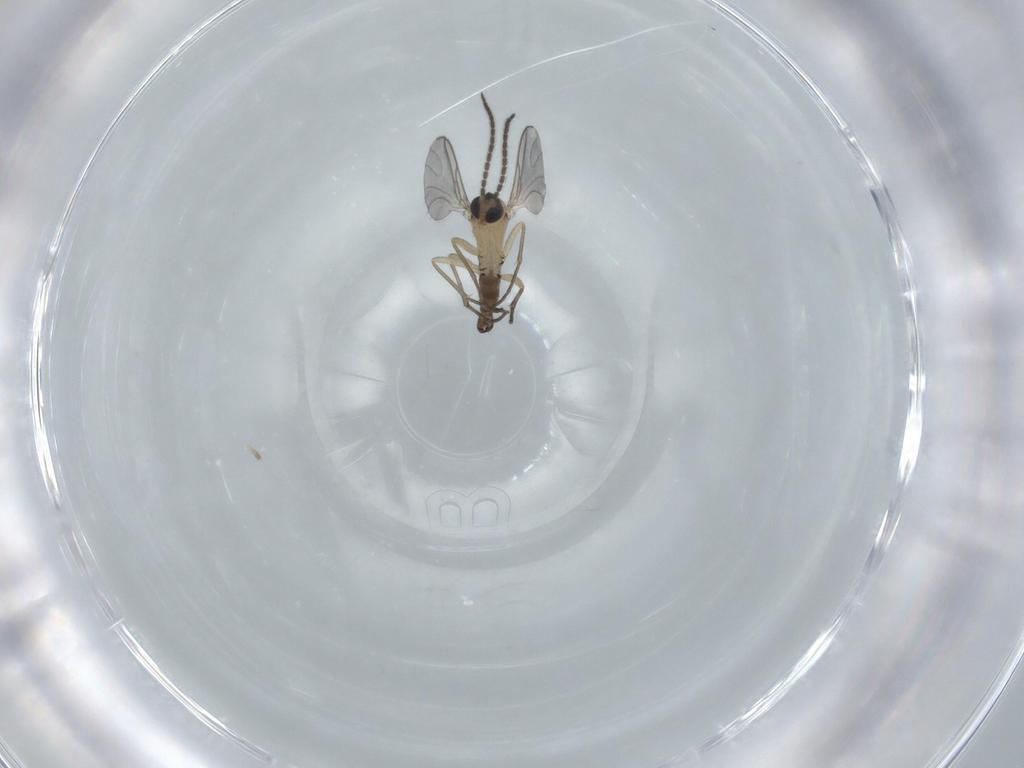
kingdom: Animalia
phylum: Arthropoda
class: Insecta
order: Diptera
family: Sciaridae
